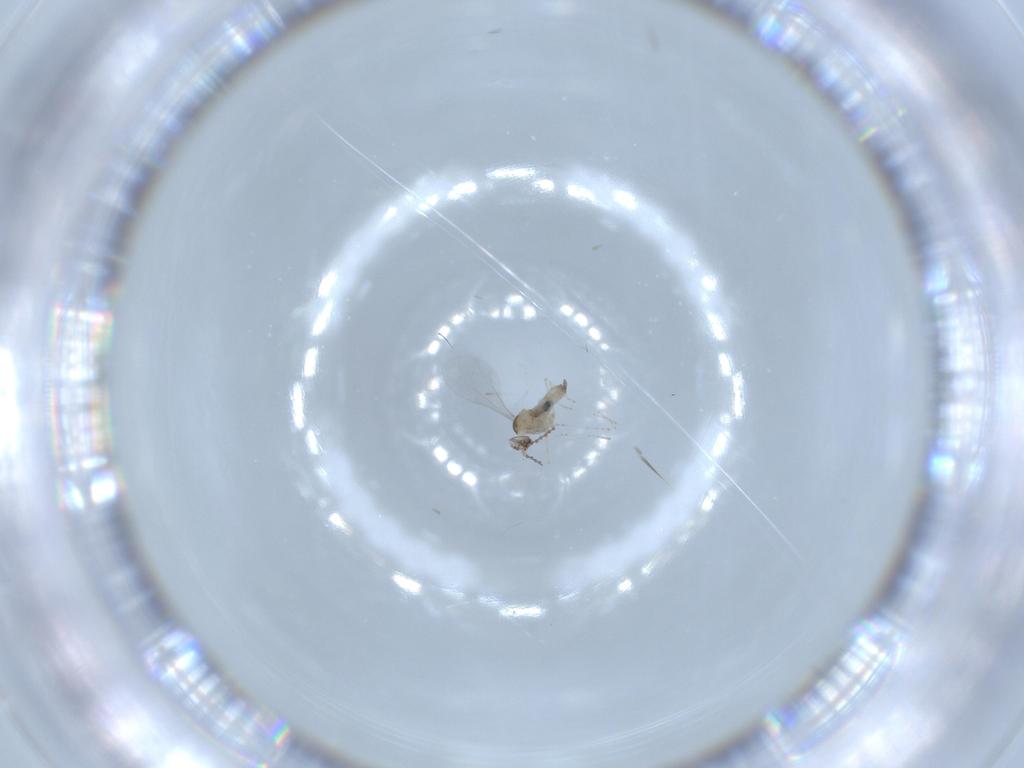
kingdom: Animalia
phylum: Arthropoda
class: Insecta
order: Diptera
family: Cecidomyiidae
